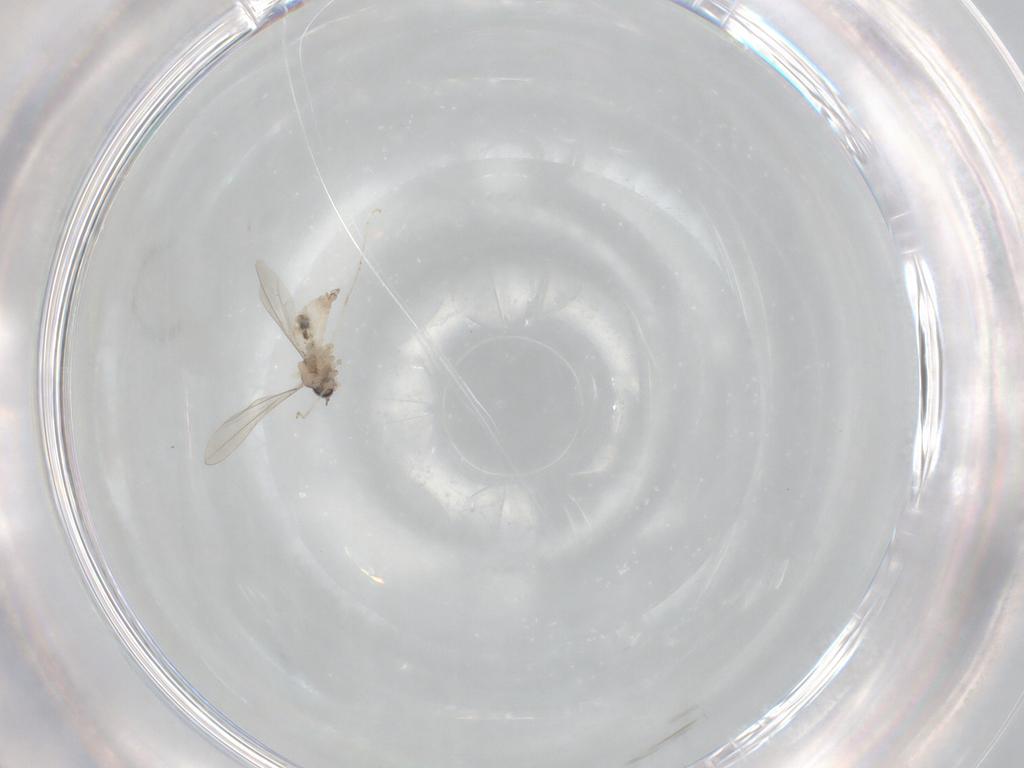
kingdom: Animalia
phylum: Arthropoda
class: Insecta
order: Diptera
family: Cecidomyiidae
